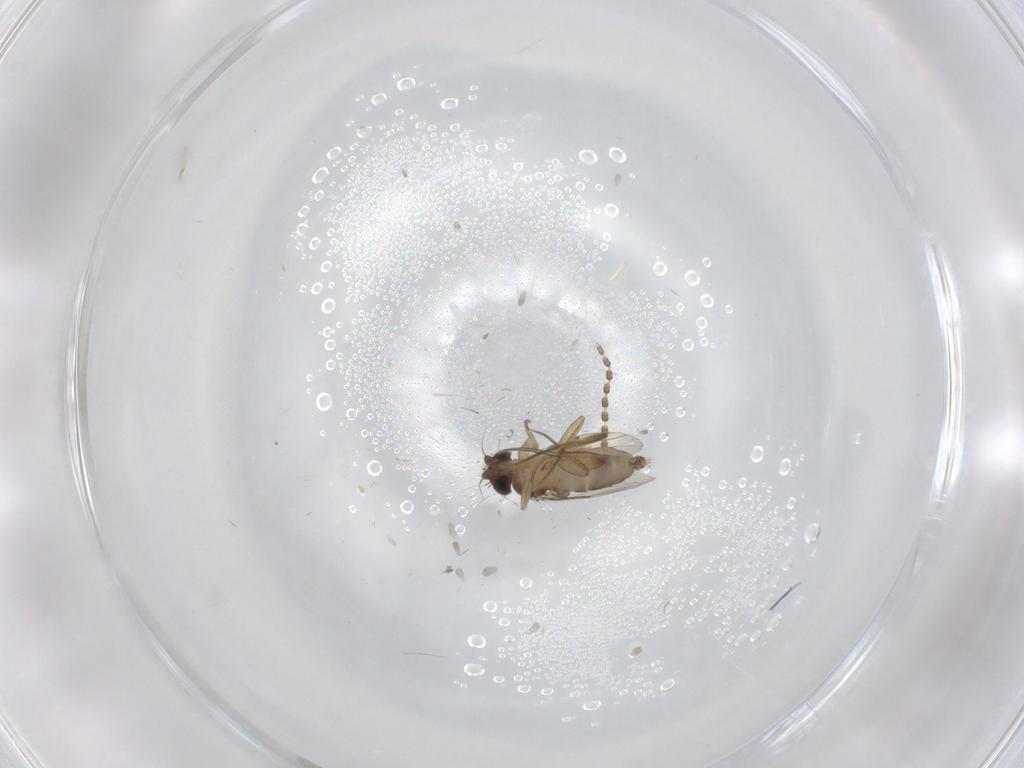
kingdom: Animalia
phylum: Arthropoda
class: Insecta
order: Diptera
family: Phoridae
